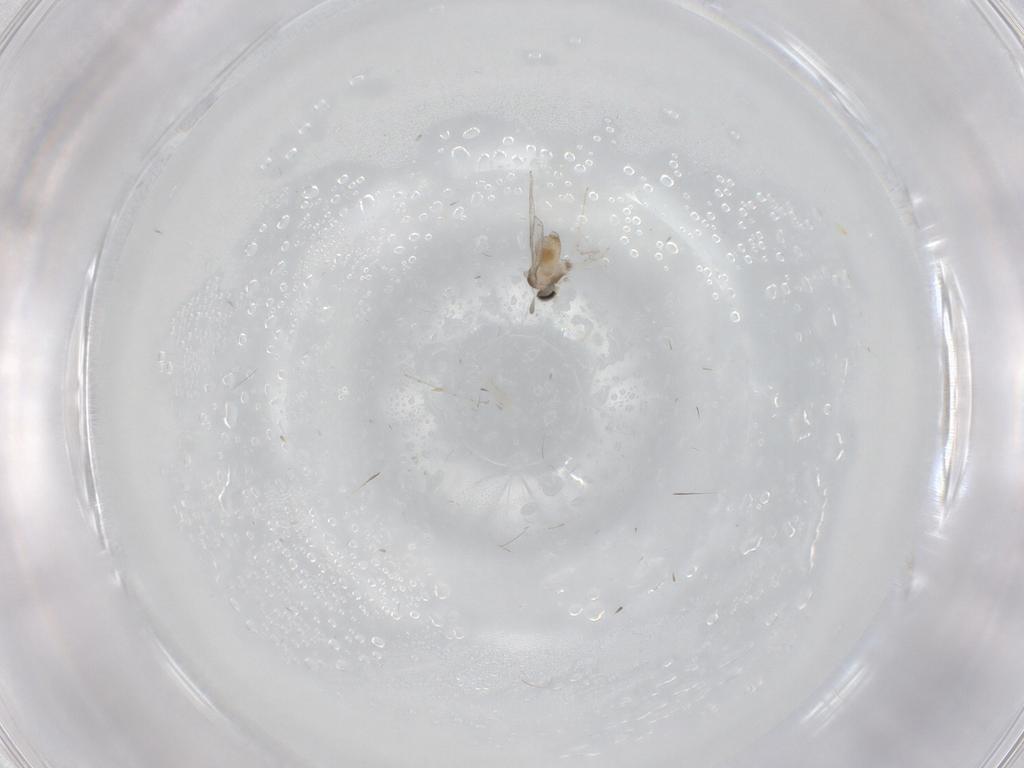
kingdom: Animalia
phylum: Arthropoda
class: Insecta
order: Diptera
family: Cecidomyiidae
